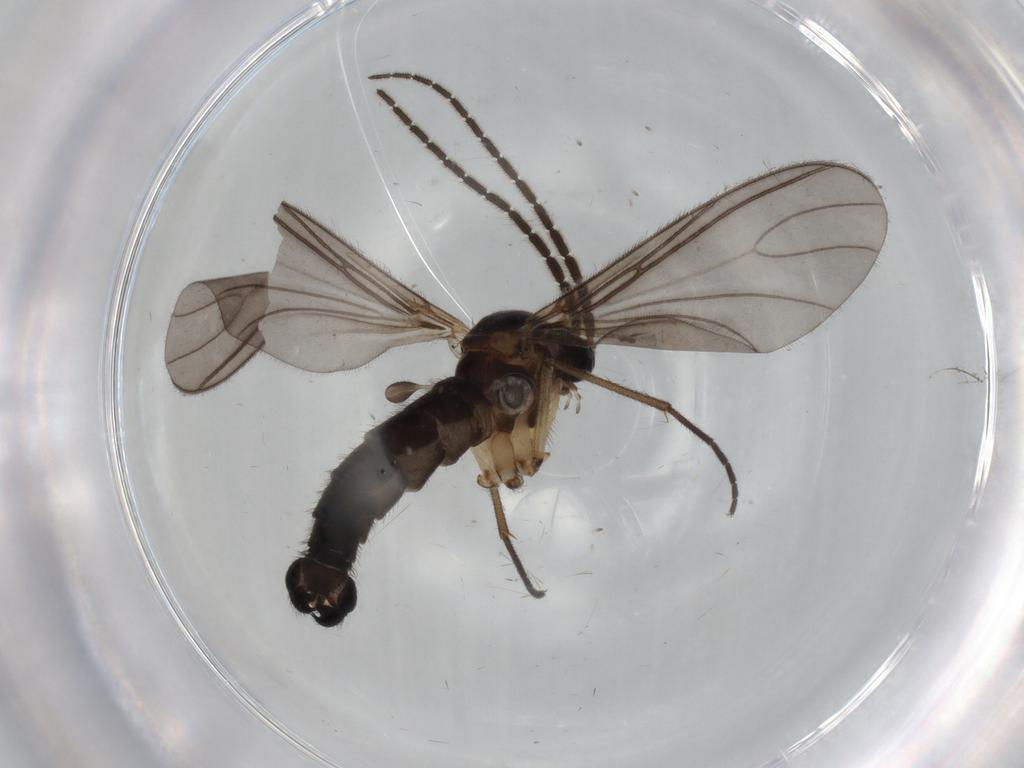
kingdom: Animalia
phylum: Arthropoda
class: Insecta
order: Diptera
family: Sciaridae
